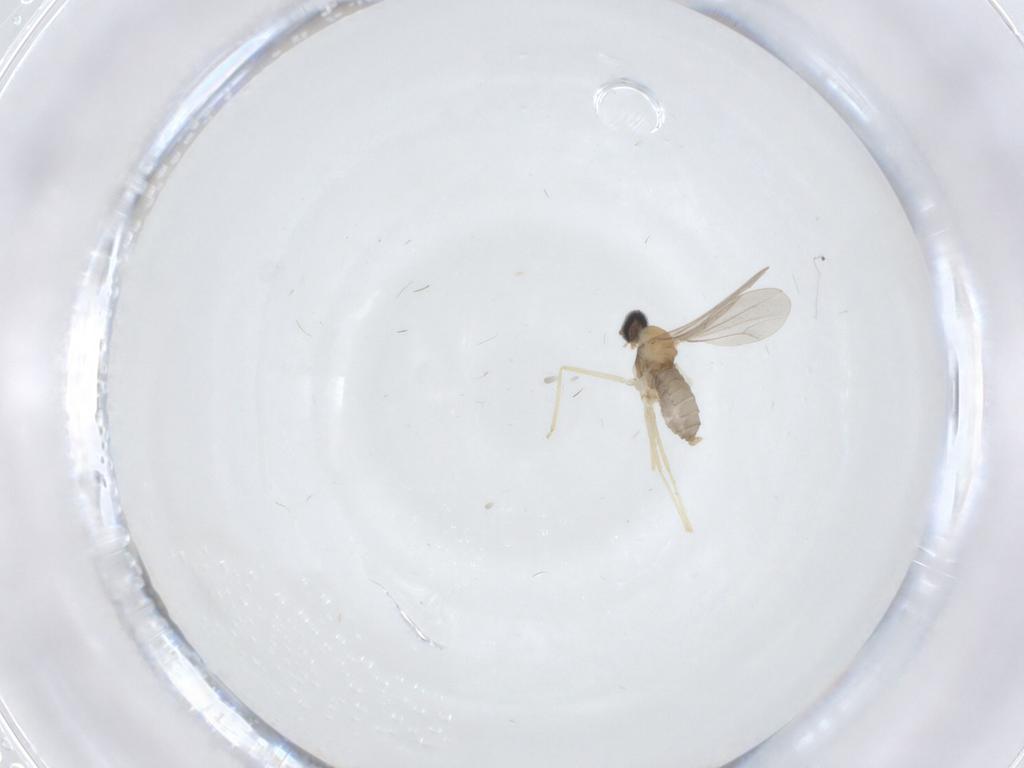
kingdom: Animalia
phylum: Arthropoda
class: Insecta
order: Diptera
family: Cecidomyiidae
